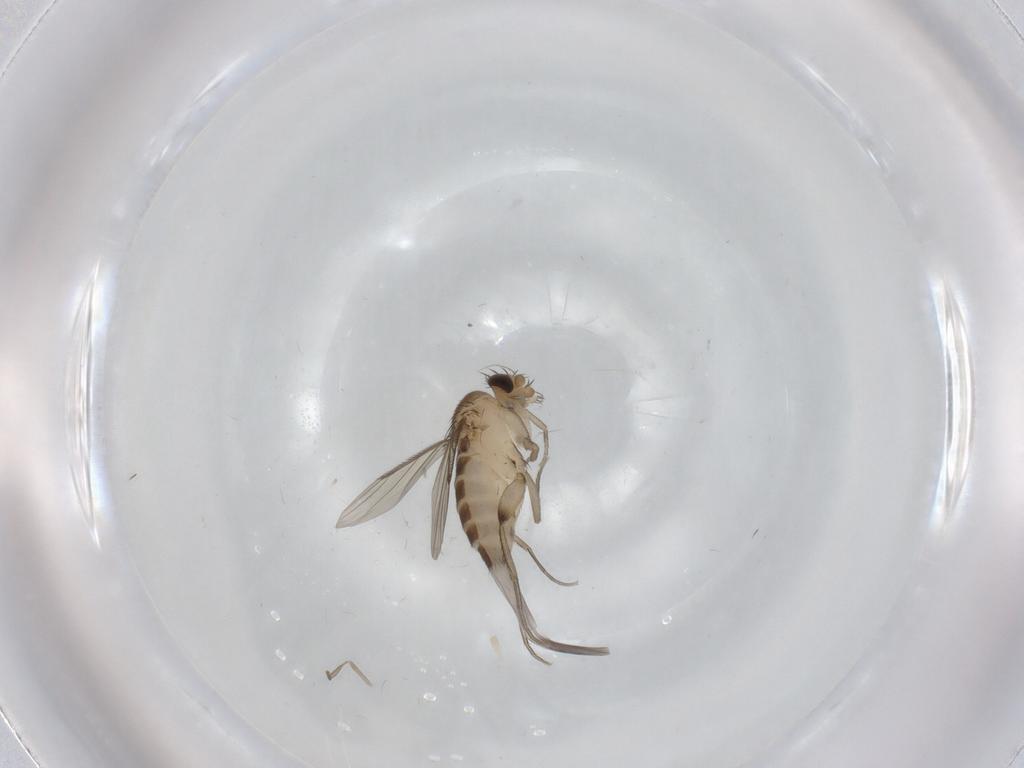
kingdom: Animalia
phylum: Arthropoda
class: Insecta
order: Diptera
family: Phoridae
